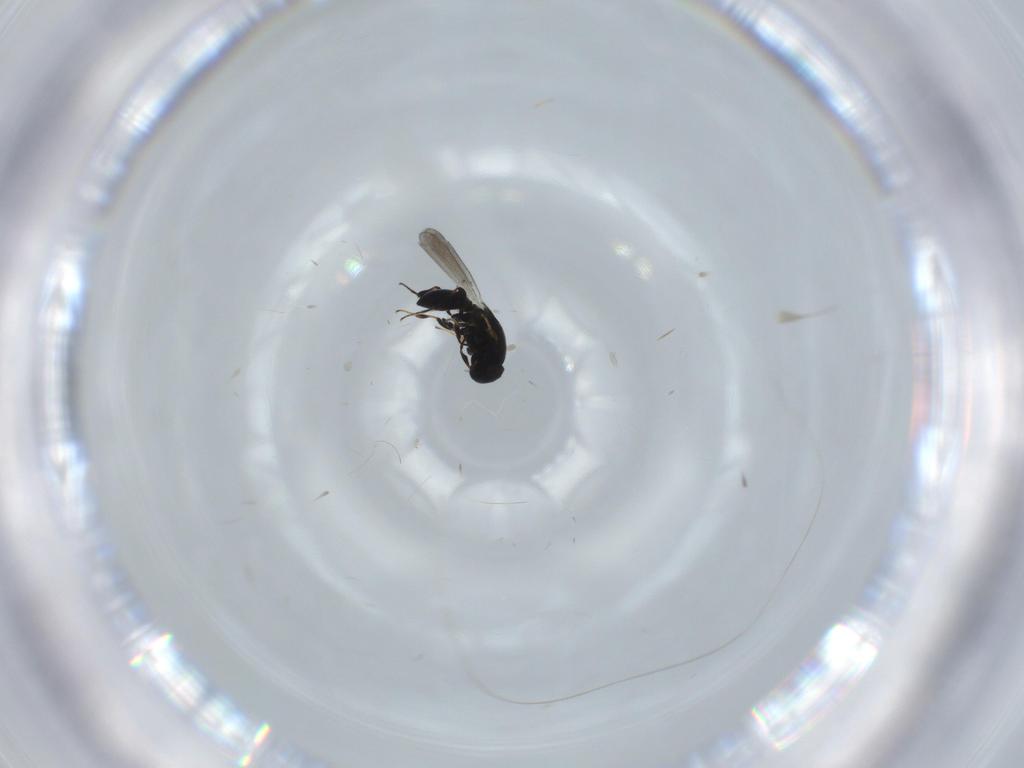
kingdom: Animalia
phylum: Arthropoda
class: Insecta
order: Hymenoptera
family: Platygastridae
